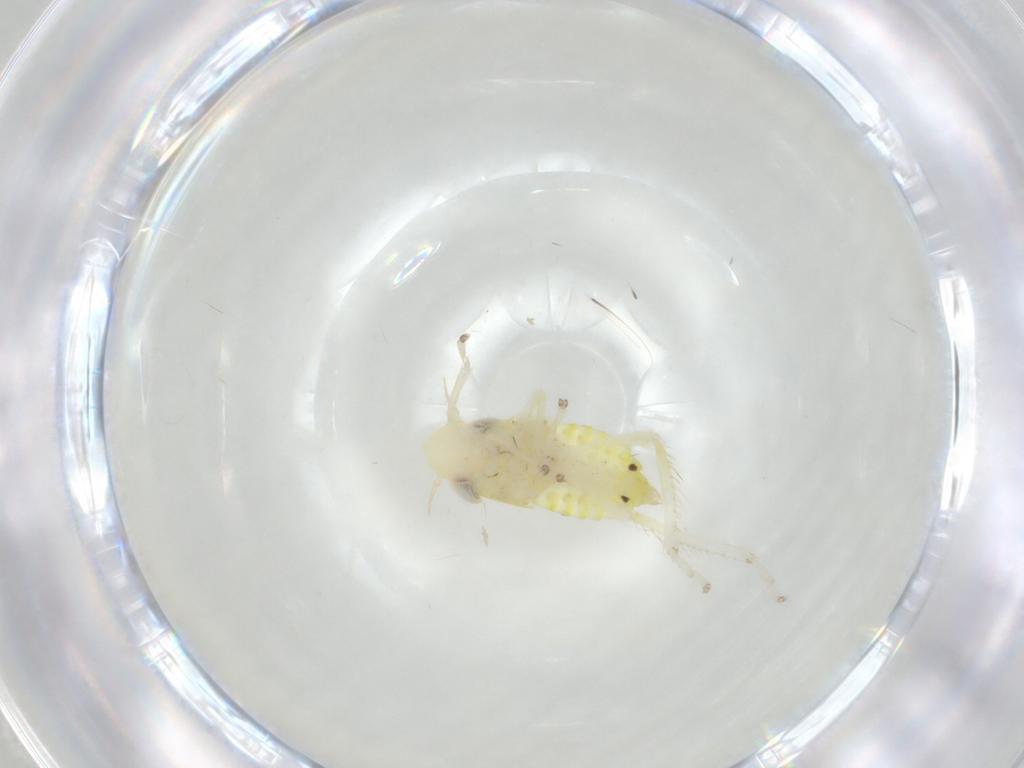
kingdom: Animalia
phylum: Arthropoda
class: Insecta
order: Hemiptera
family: Cicadellidae
